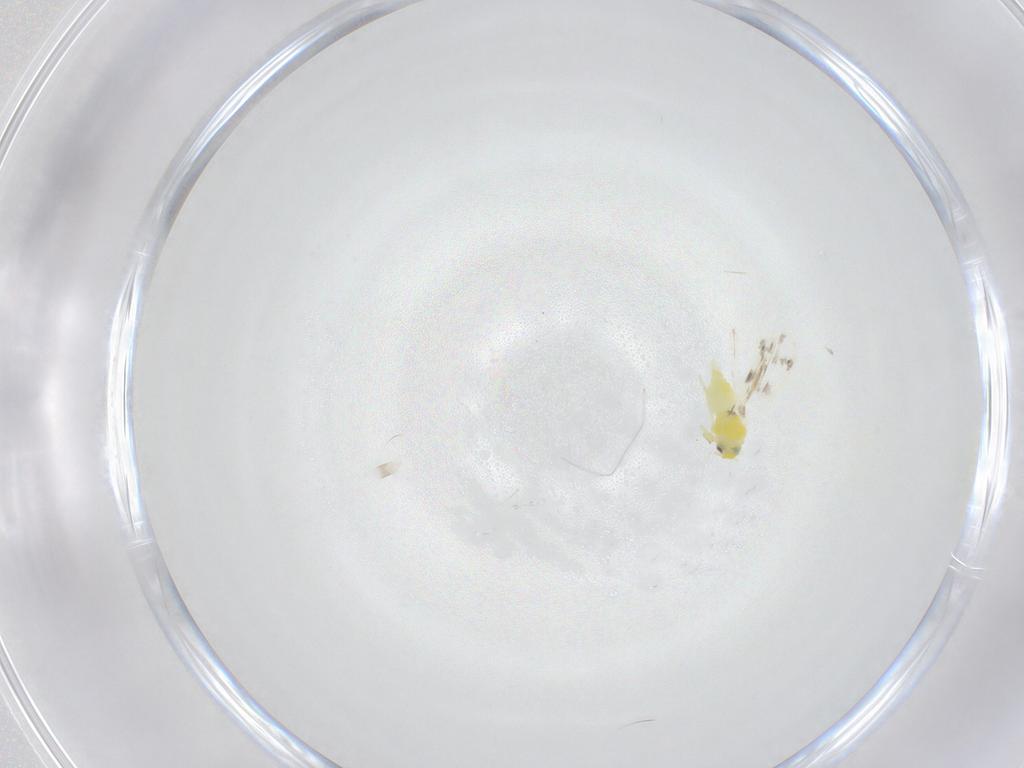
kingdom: Animalia
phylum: Arthropoda
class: Insecta
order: Hemiptera
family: Aleyrodidae
